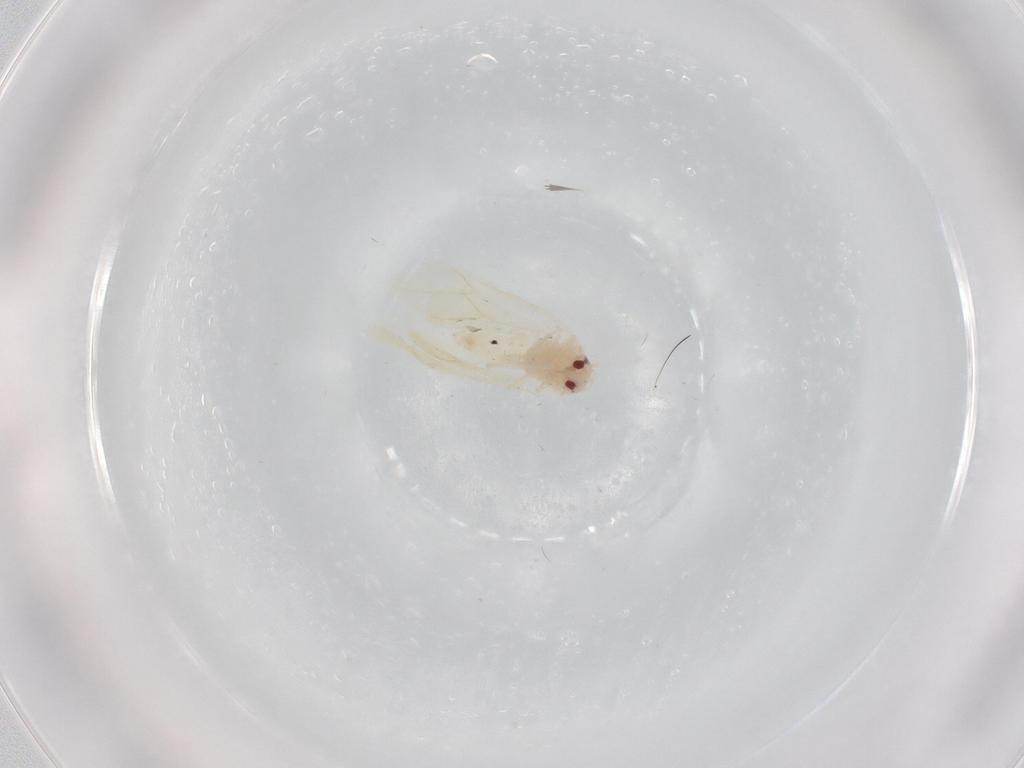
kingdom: Animalia
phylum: Arthropoda
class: Insecta
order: Hemiptera
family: Aleyrodidae
